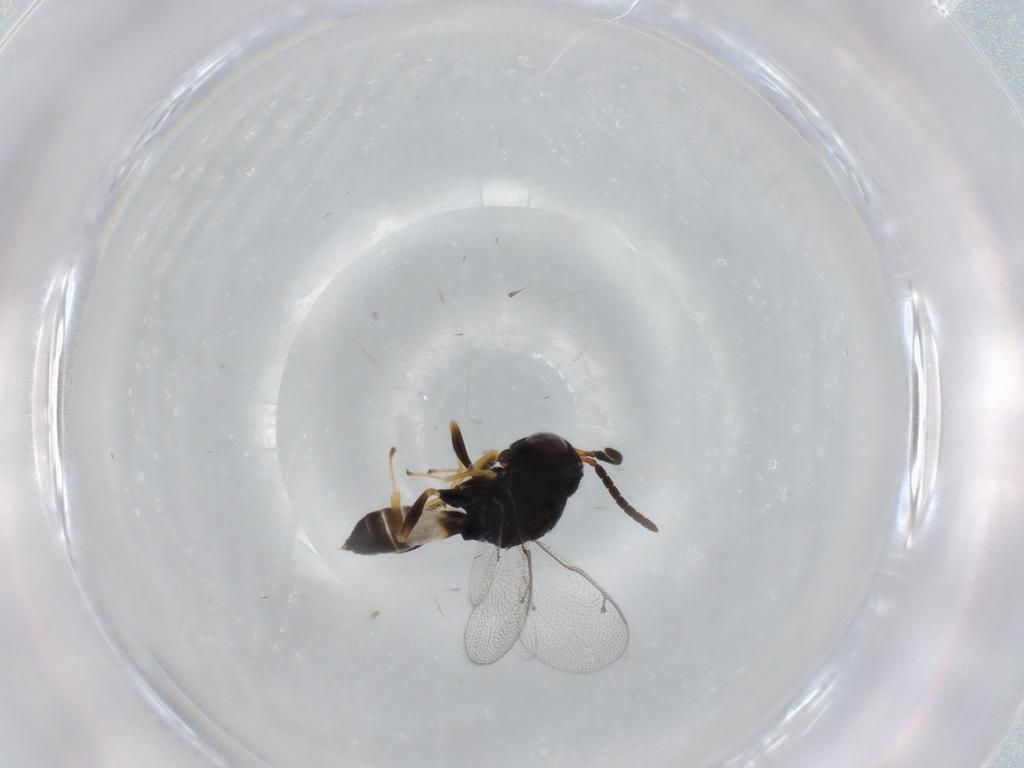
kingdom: Animalia
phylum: Arthropoda
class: Insecta
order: Hymenoptera
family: Pteromalidae
